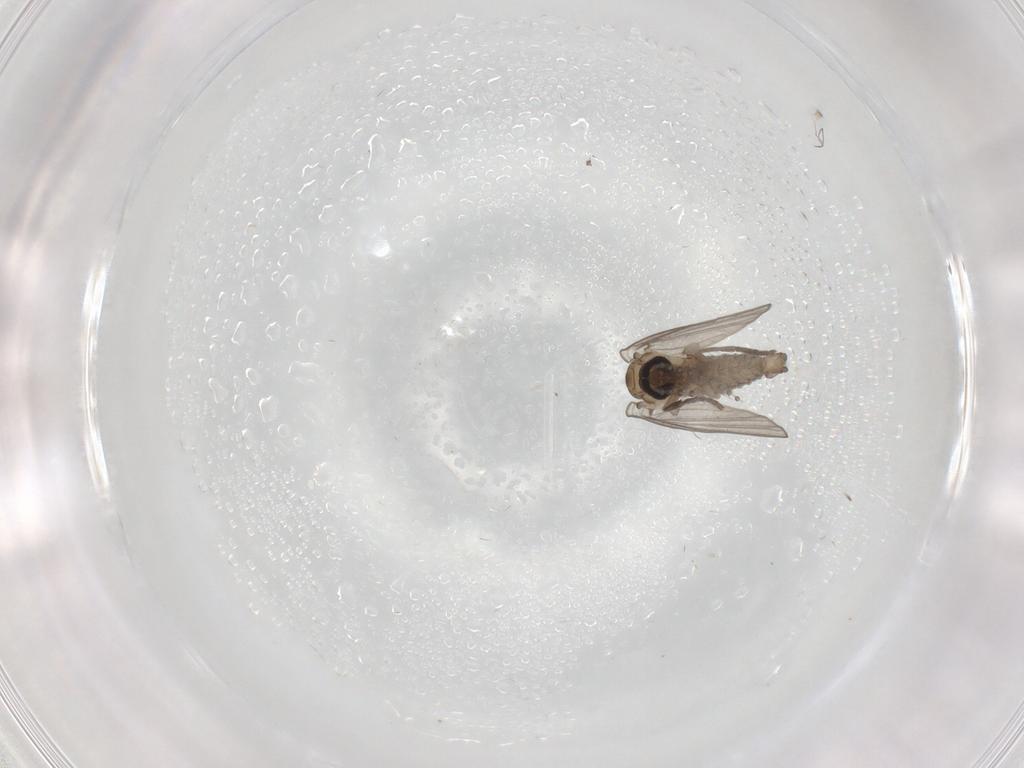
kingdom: Animalia
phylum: Arthropoda
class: Insecta
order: Diptera
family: Psychodidae
